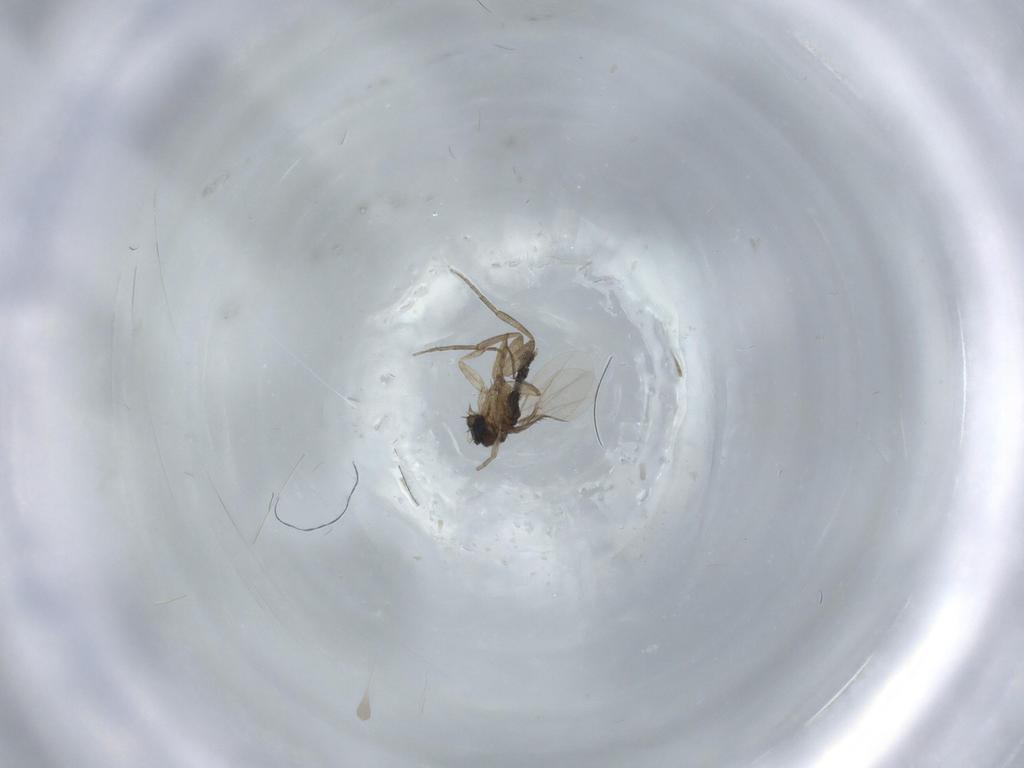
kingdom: Animalia
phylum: Arthropoda
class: Insecta
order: Diptera
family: Phoridae
